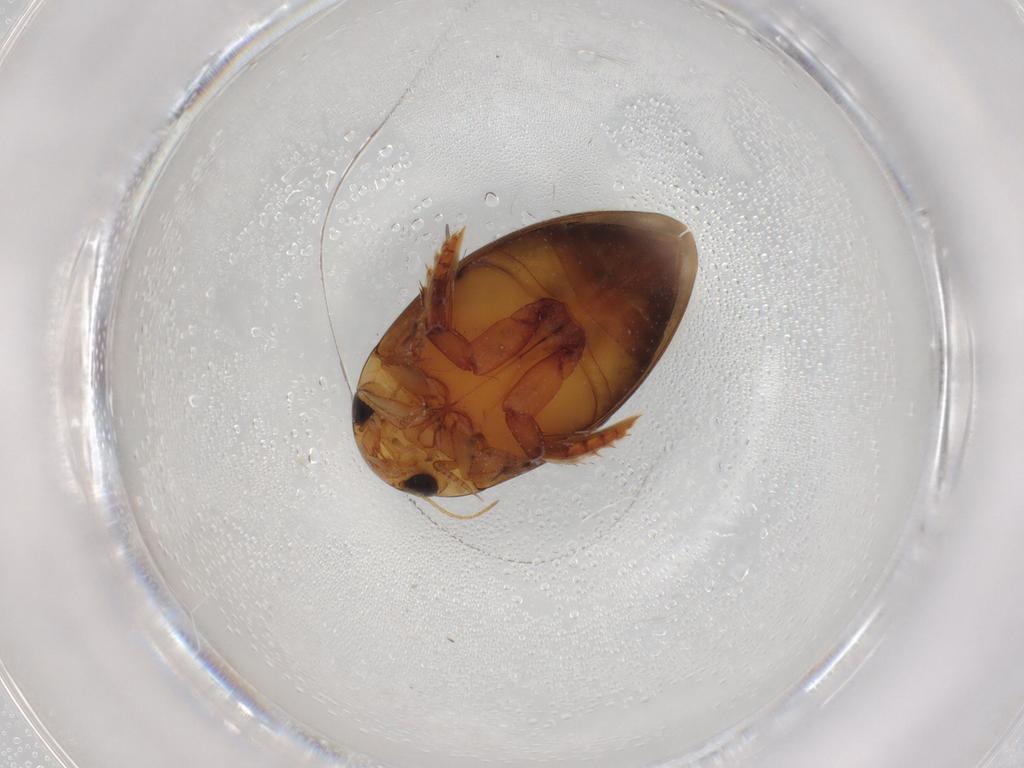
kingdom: Animalia
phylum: Arthropoda
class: Insecta
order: Coleoptera
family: Dytiscidae
